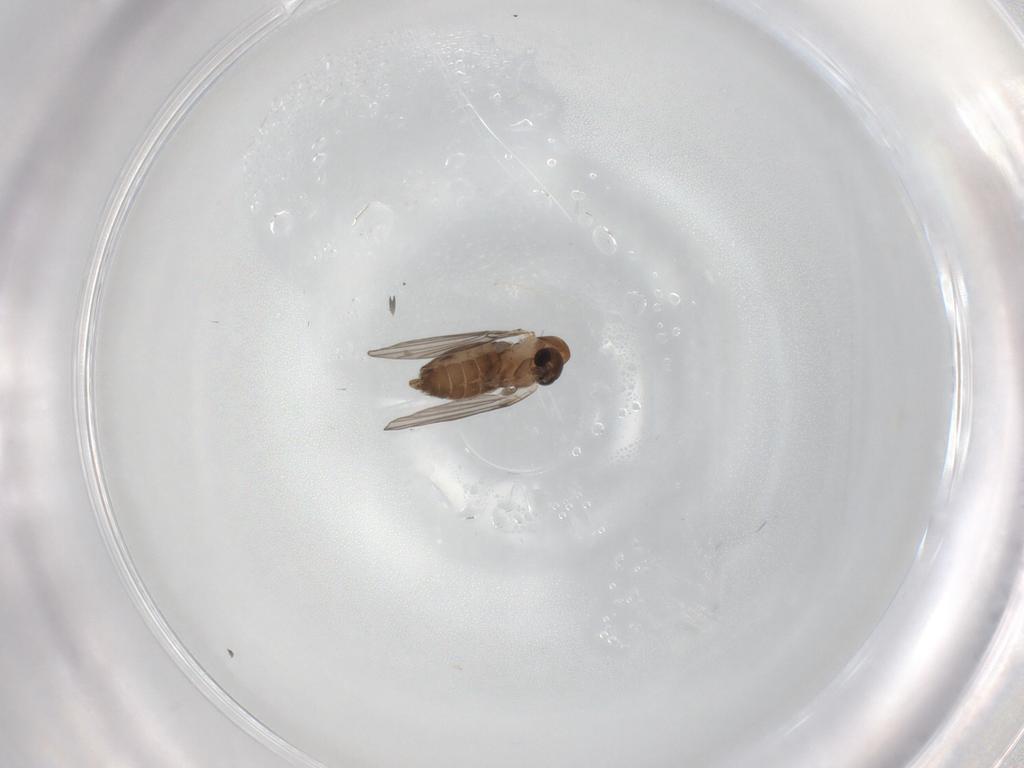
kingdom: Animalia
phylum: Arthropoda
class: Insecta
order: Diptera
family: Psychodidae
